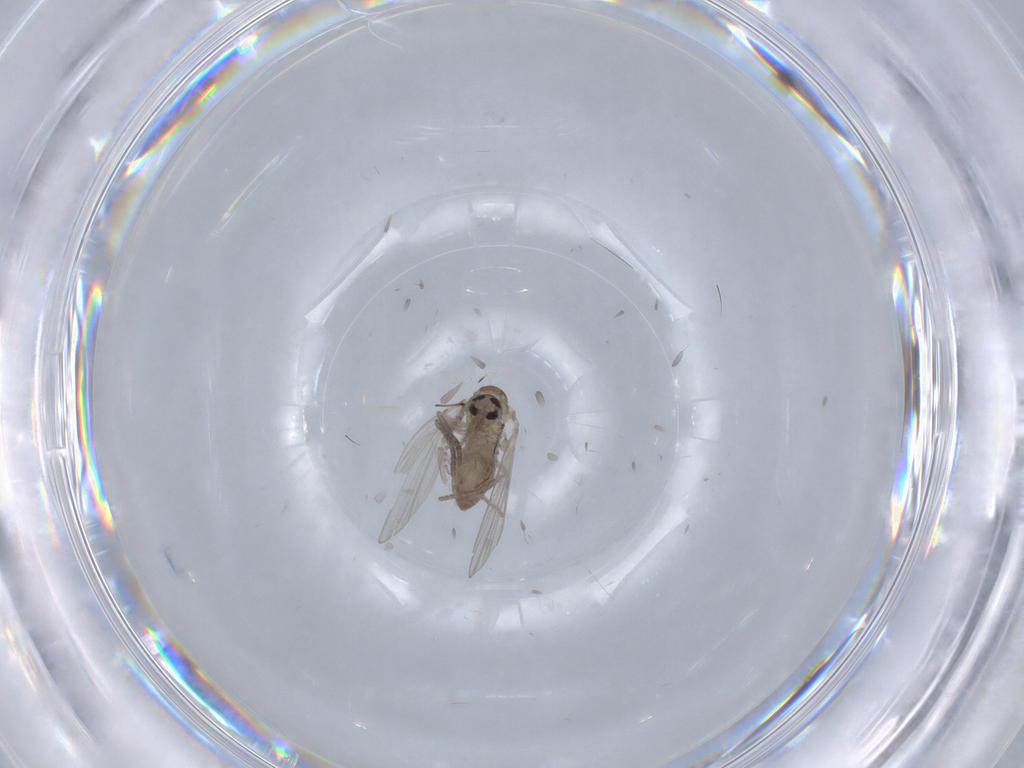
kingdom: Animalia
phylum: Arthropoda
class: Insecta
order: Diptera
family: Psychodidae
